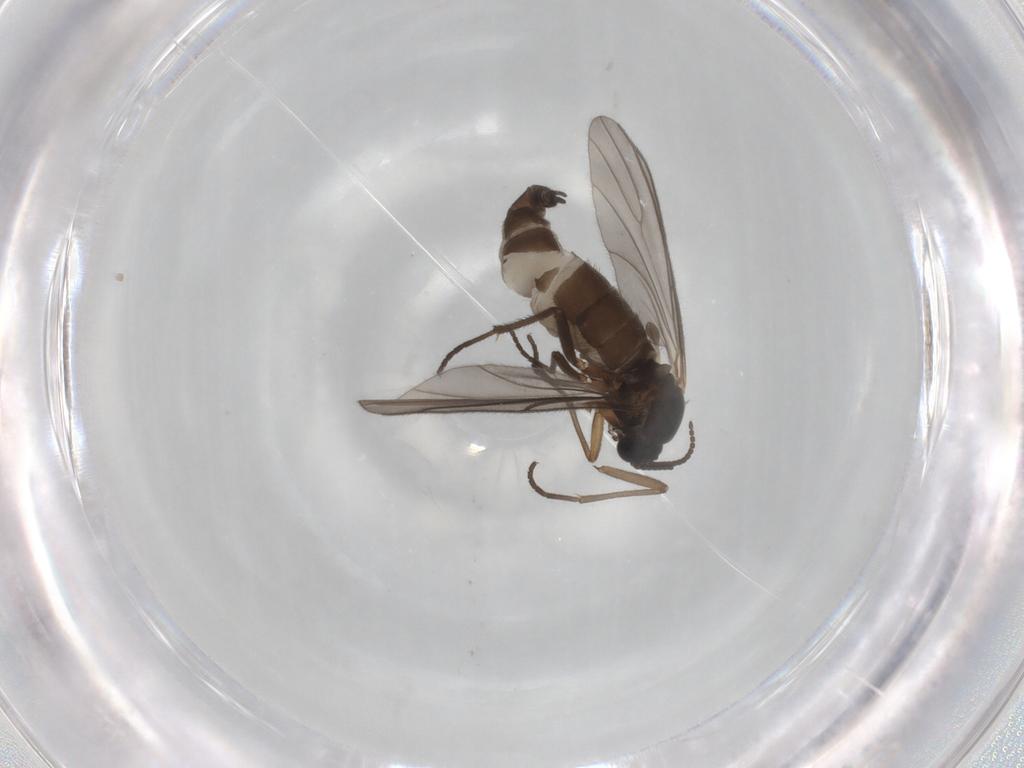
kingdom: Animalia
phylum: Arthropoda
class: Insecta
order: Diptera
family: Sciaridae
